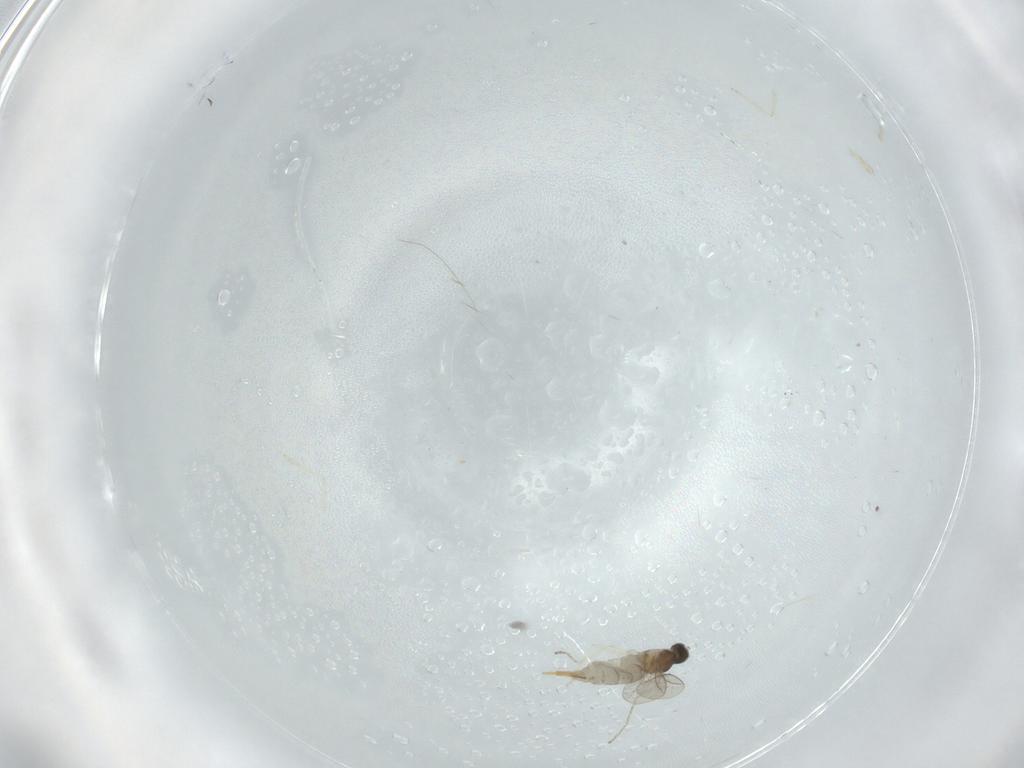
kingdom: Animalia
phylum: Arthropoda
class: Insecta
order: Diptera
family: Cecidomyiidae
